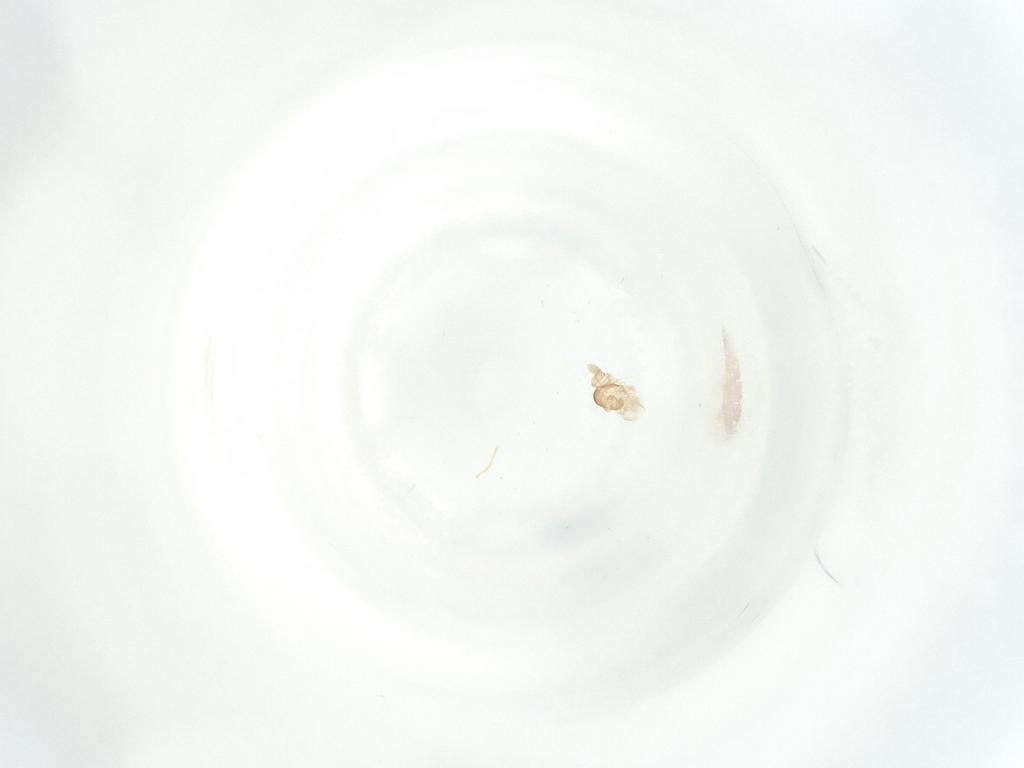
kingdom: Animalia
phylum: Arthropoda
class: Insecta
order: Diptera
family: Cecidomyiidae
